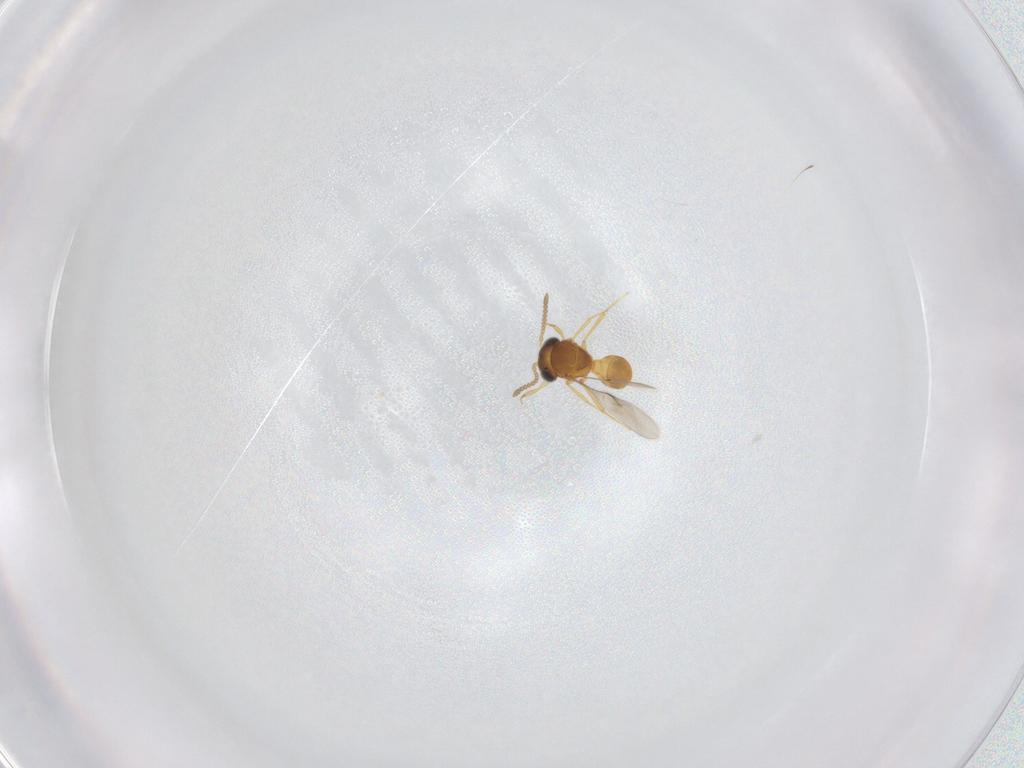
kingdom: Animalia
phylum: Arthropoda
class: Insecta
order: Hymenoptera
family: Scelionidae
